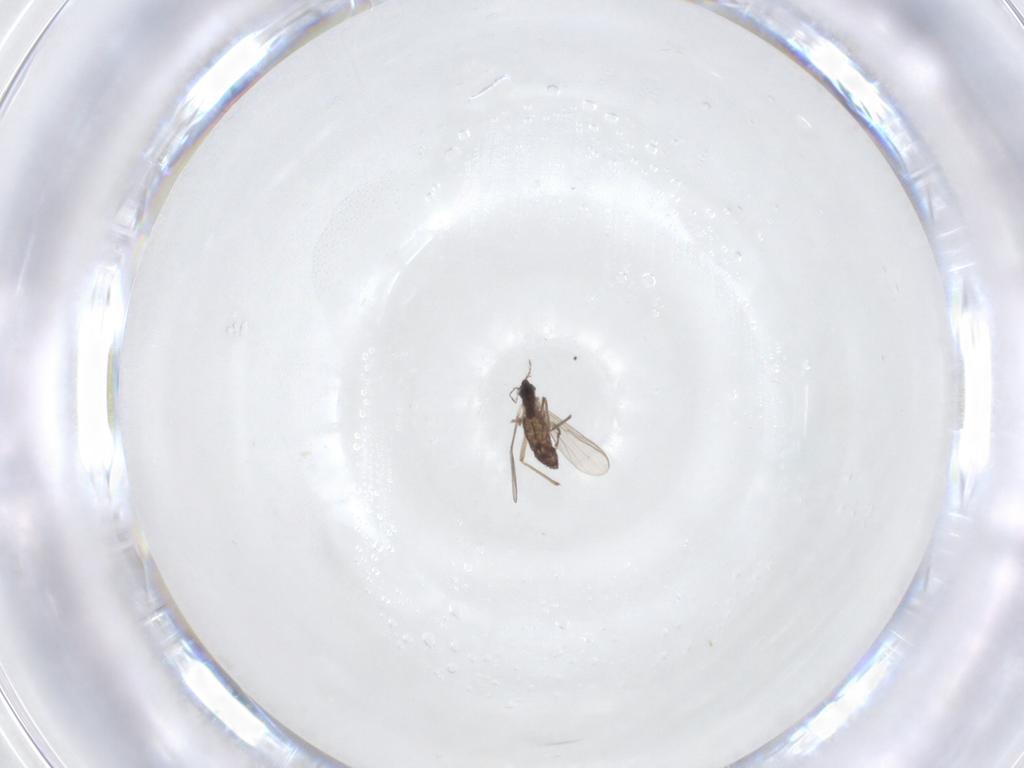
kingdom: Animalia
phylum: Arthropoda
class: Insecta
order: Diptera
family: Chironomidae
